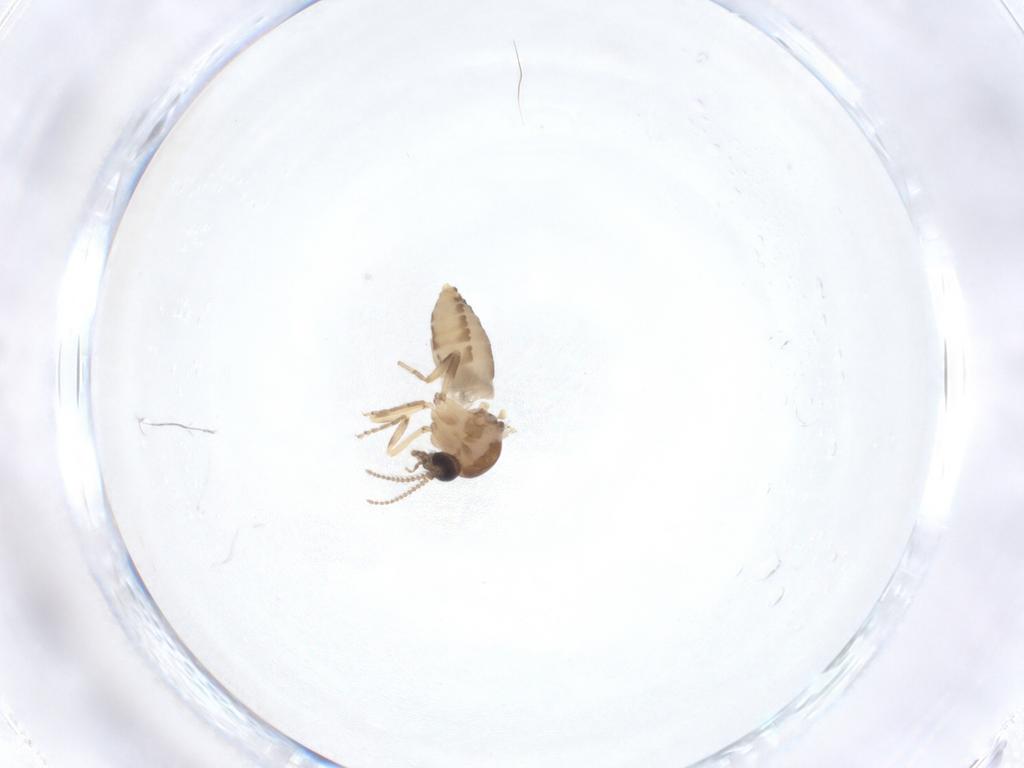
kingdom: Animalia
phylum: Arthropoda
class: Insecta
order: Diptera
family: Ceratopogonidae
